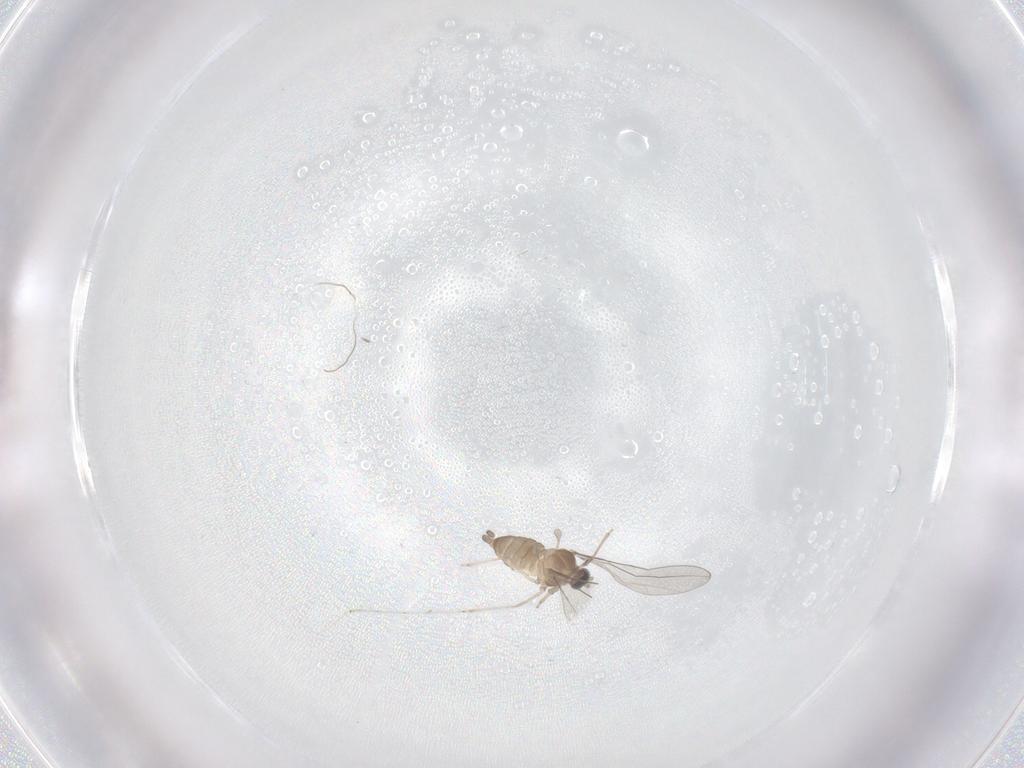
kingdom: Animalia
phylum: Arthropoda
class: Insecta
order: Diptera
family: Cecidomyiidae
